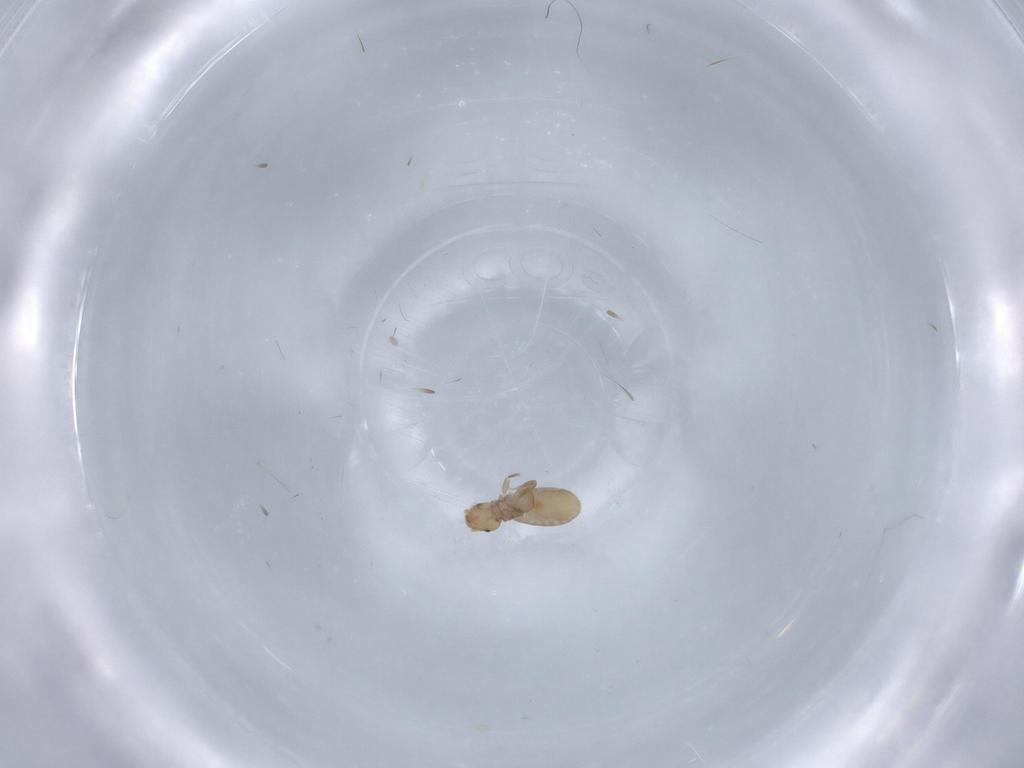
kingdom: Animalia
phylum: Arthropoda
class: Insecta
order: Psocodea
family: Liposcelididae
